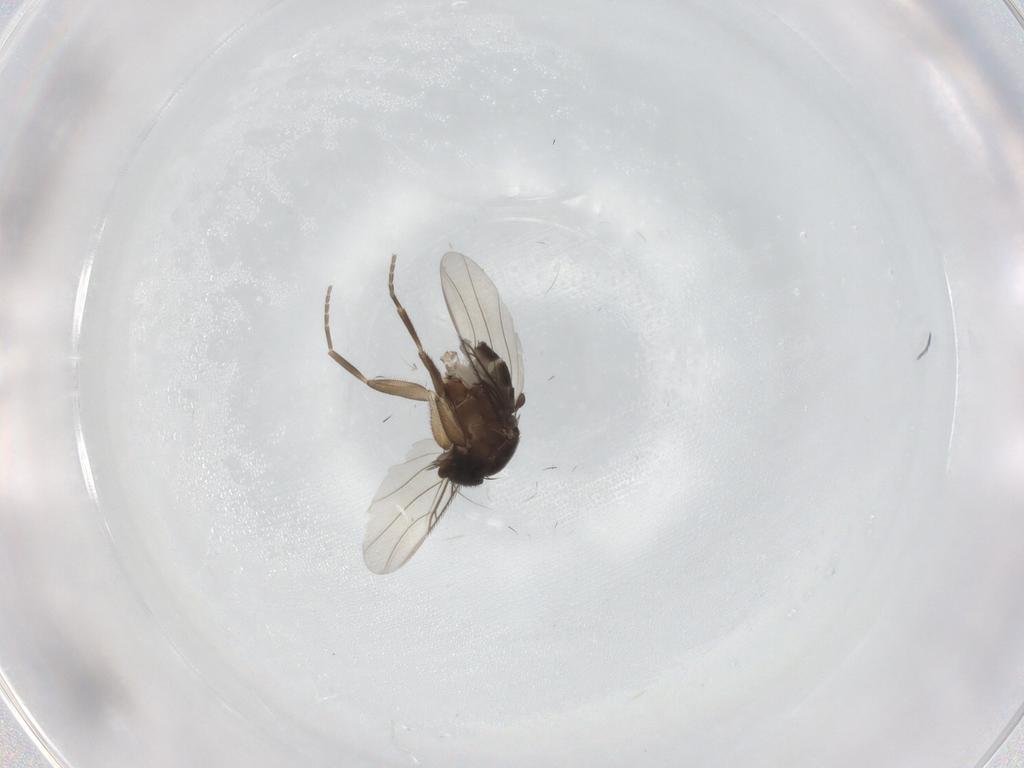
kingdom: Animalia
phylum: Arthropoda
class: Insecta
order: Diptera
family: Phoridae
